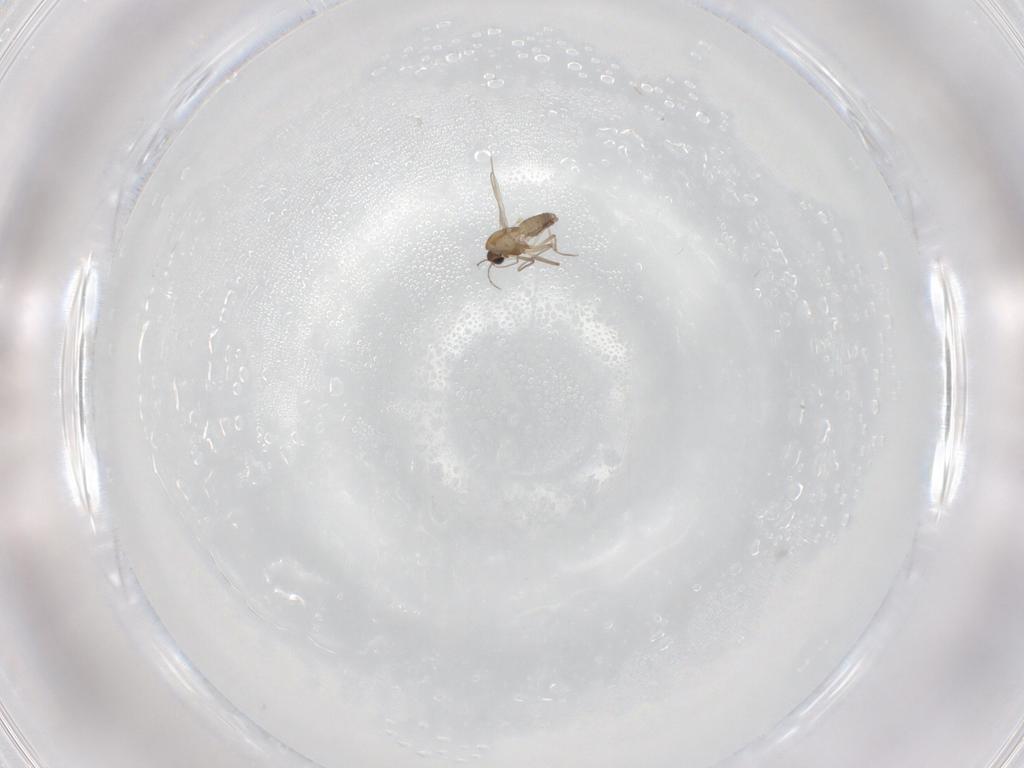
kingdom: Animalia
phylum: Arthropoda
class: Insecta
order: Diptera
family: Chironomidae
